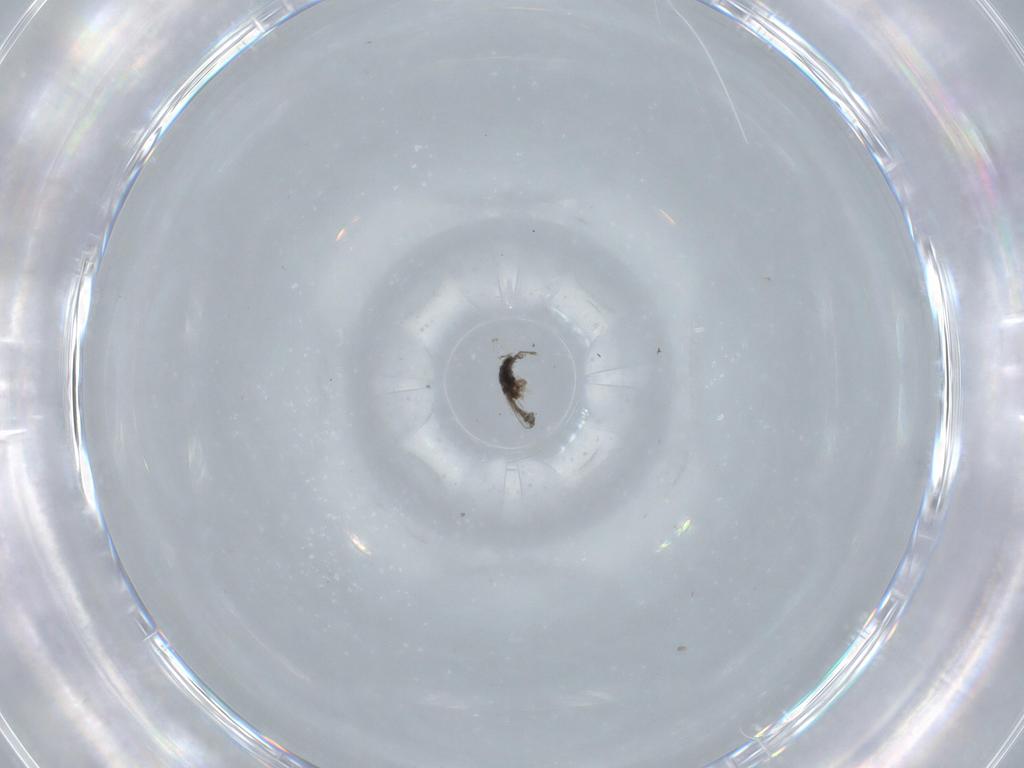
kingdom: Animalia
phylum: Arthropoda
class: Insecta
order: Diptera
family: Cecidomyiidae
